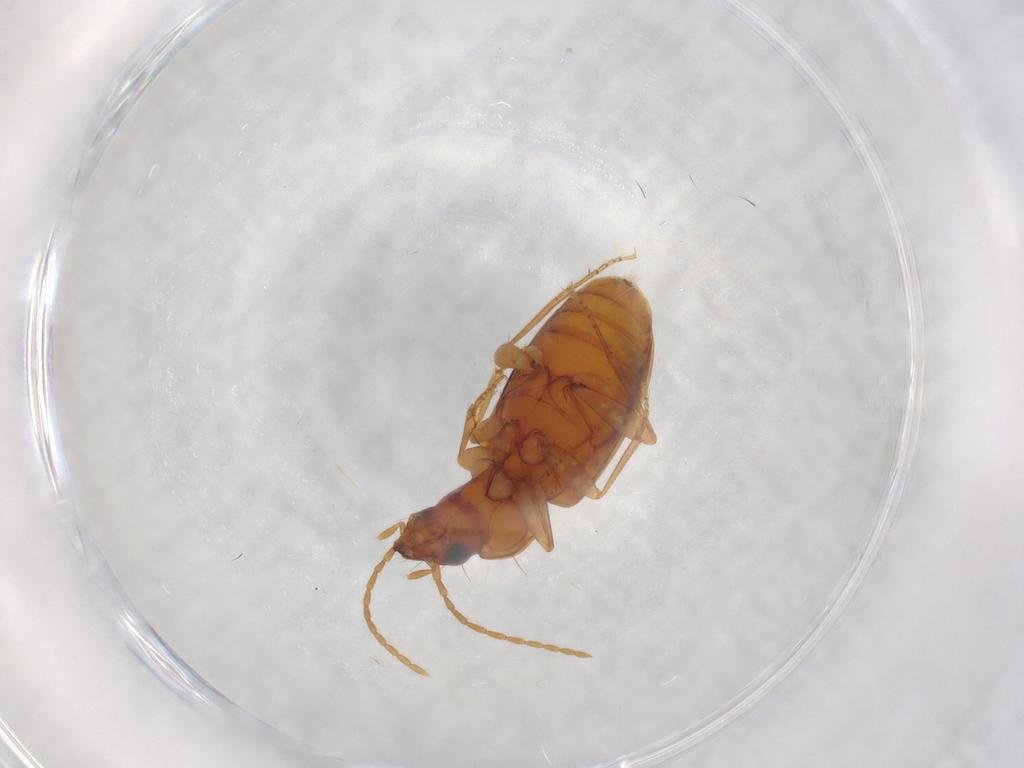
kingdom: Animalia
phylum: Arthropoda
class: Insecta
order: Coleoptera
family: Carabidae
